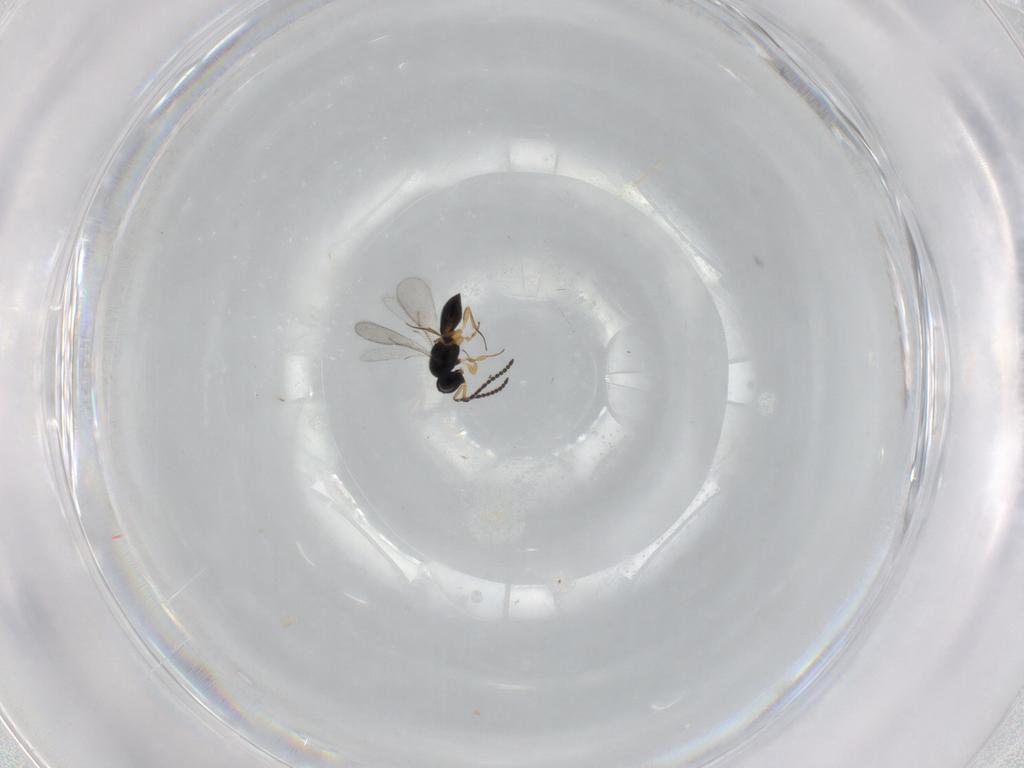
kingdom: Animalia
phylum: Arthropoda
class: Insecta
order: Hymenoptera
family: Scelionidae
